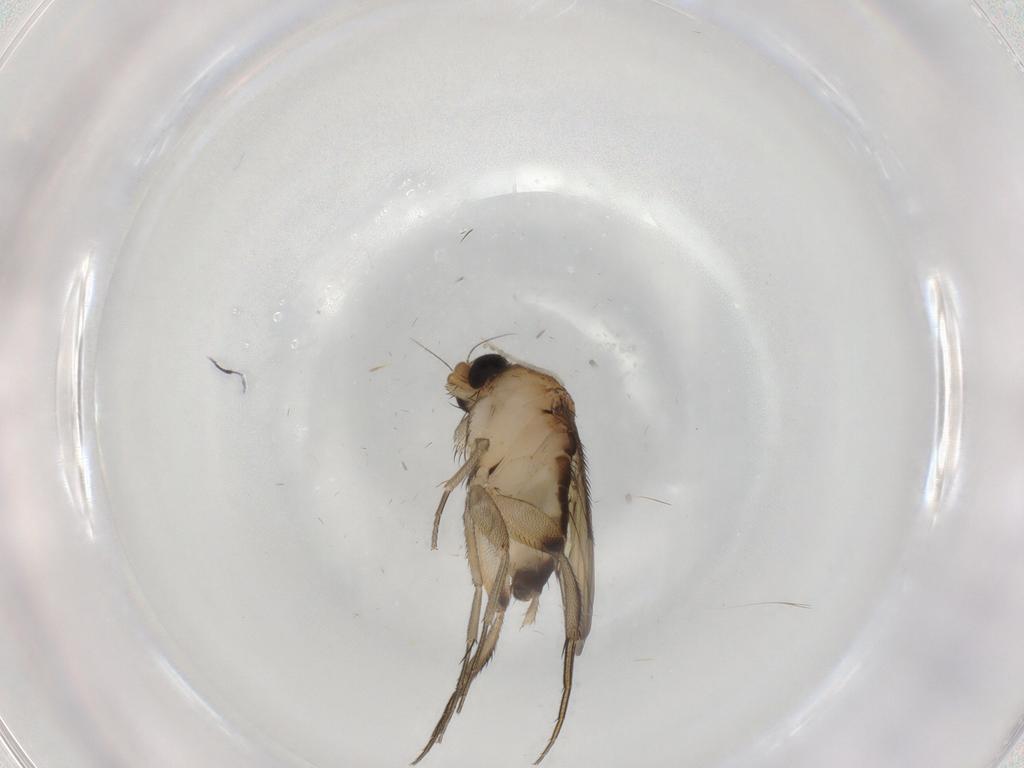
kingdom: Animalia
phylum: Arthropoda
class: Insecta
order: Diptera
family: Phoridae
